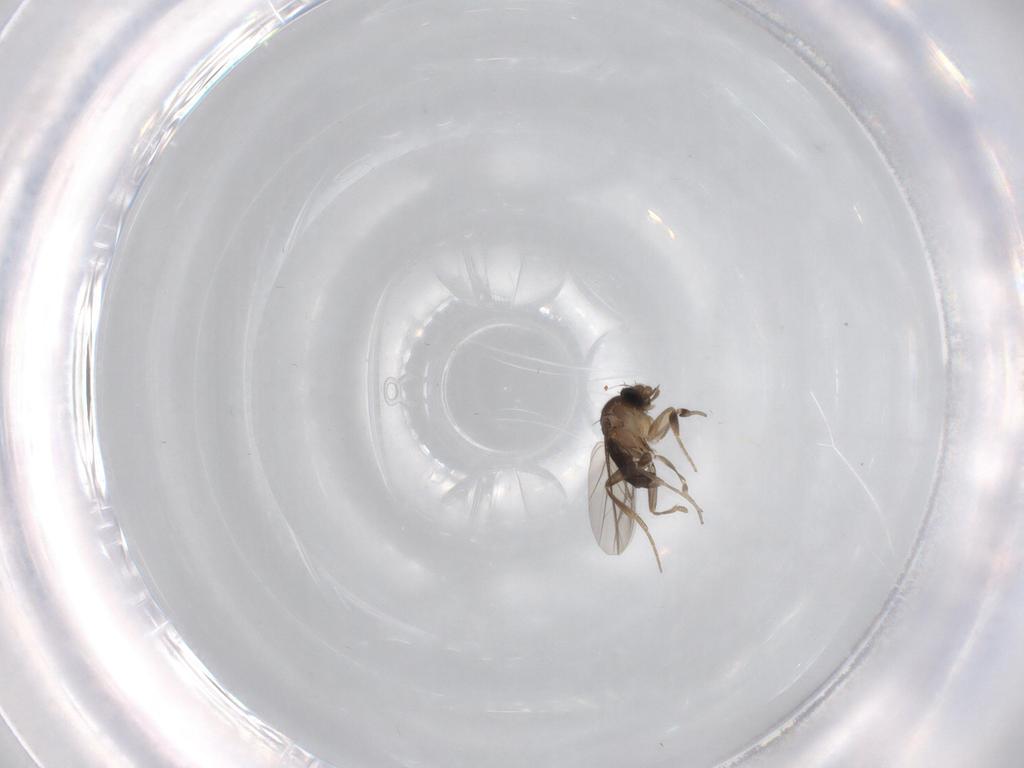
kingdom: Animalia
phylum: Arthropoda
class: Insecta
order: Diptera
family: Phoridae
